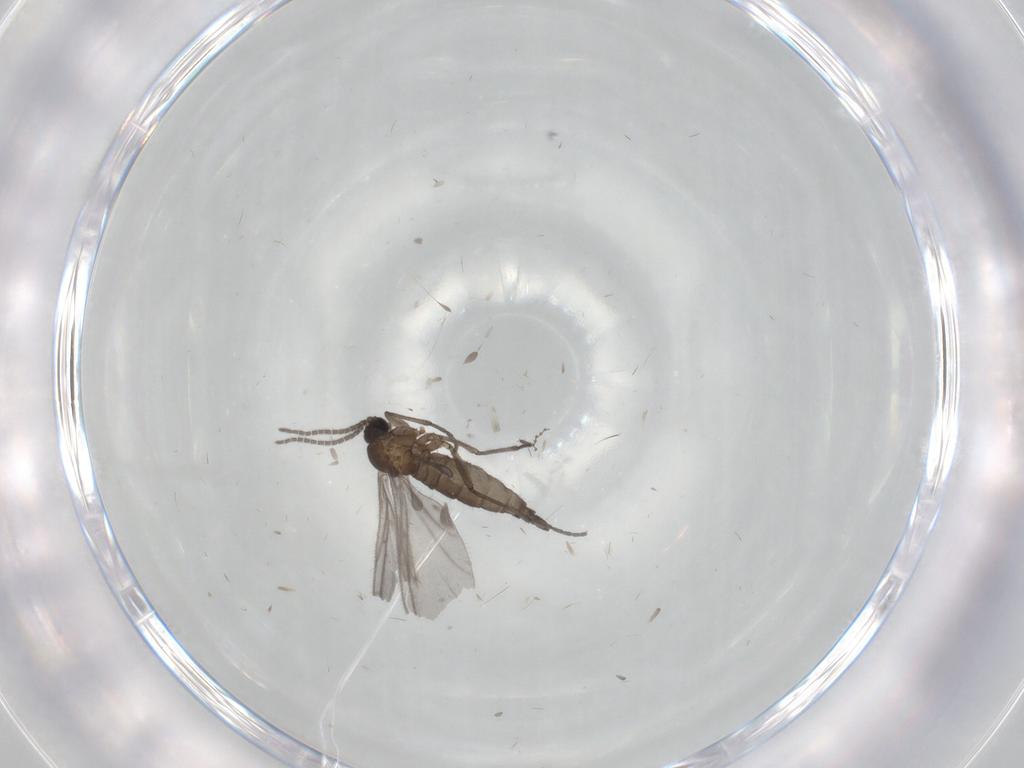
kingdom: Animalia
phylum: Arthropoda
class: Insecta
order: Diptera
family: Sciaridae
